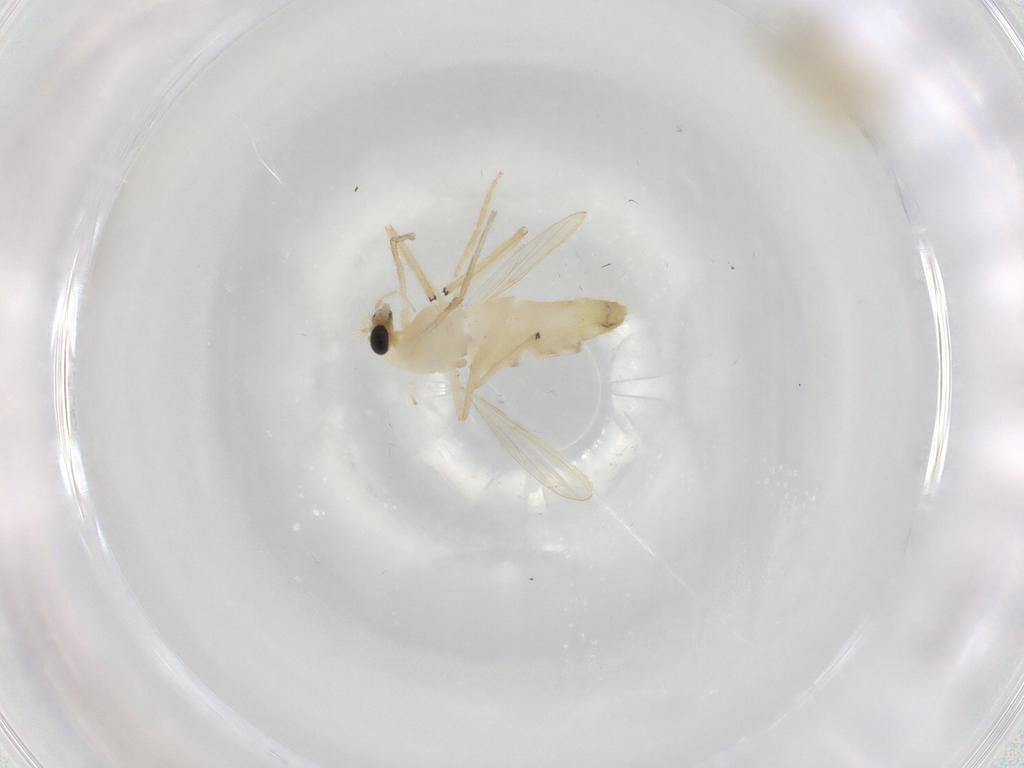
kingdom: Animalia
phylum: Arthropoda
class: Insecta
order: Diptera
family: Chironomidae
